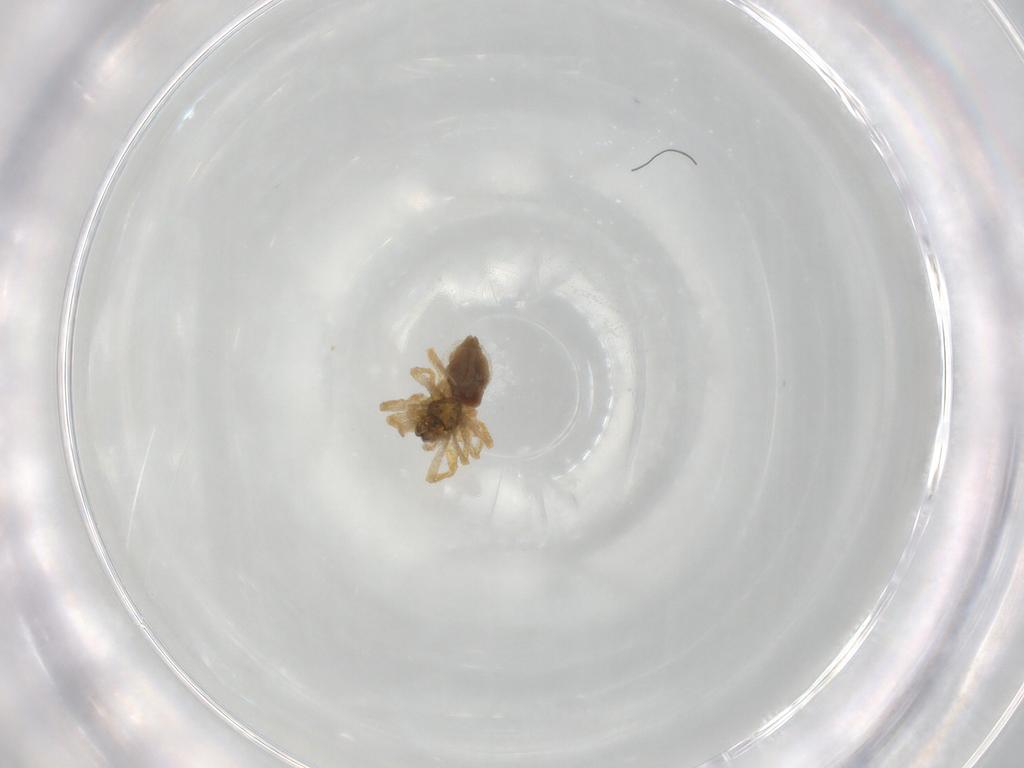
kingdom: Animalia
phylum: Arthropoda
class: Arachnida
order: Araneae
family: Linyphiidae
